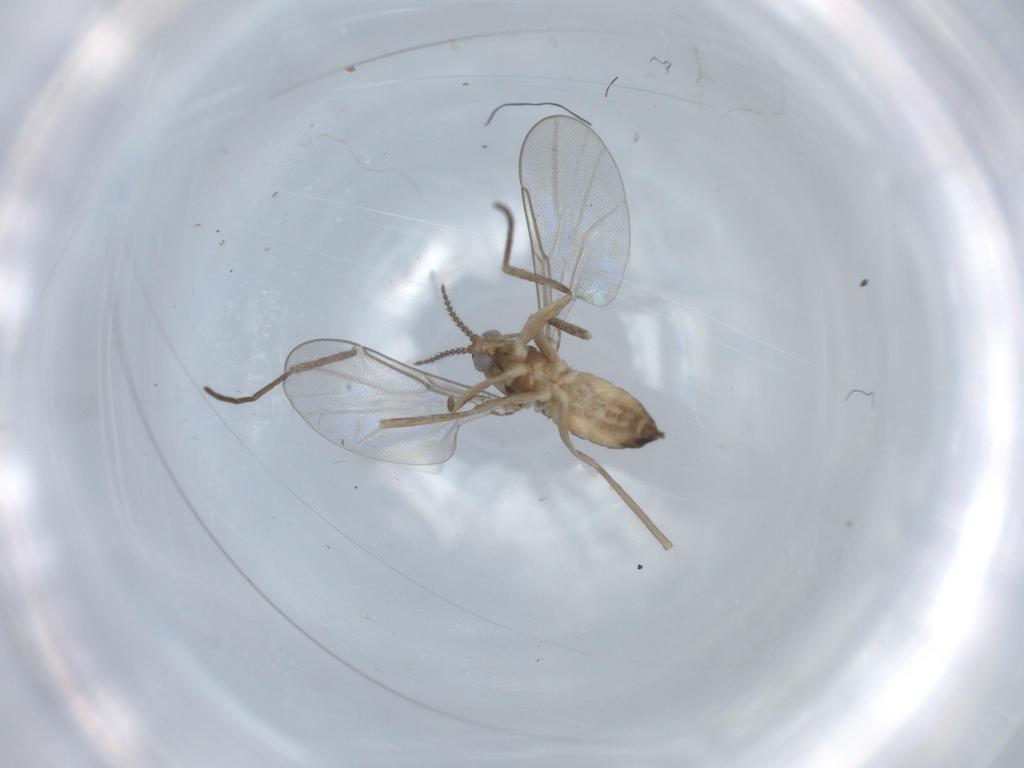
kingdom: Animalia
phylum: Arthropoda
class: Insecta
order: Diptera
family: Cecidomyiidae
